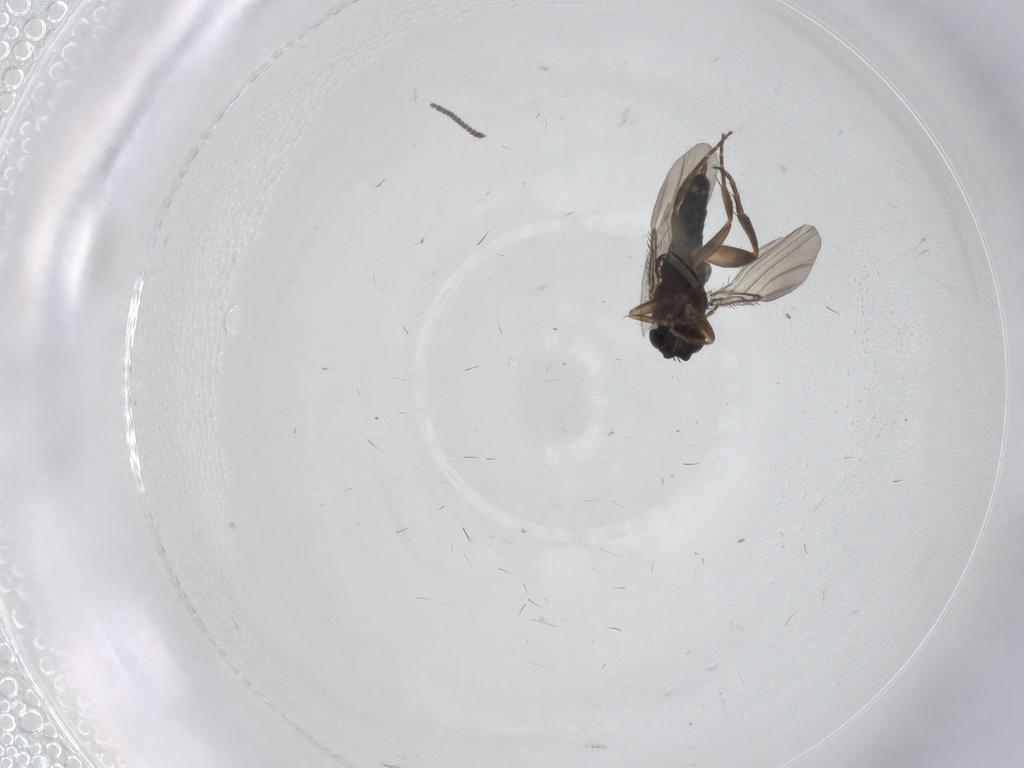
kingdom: Animalia
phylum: Arthropoda
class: Insecta
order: Diptera
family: Phoridae
